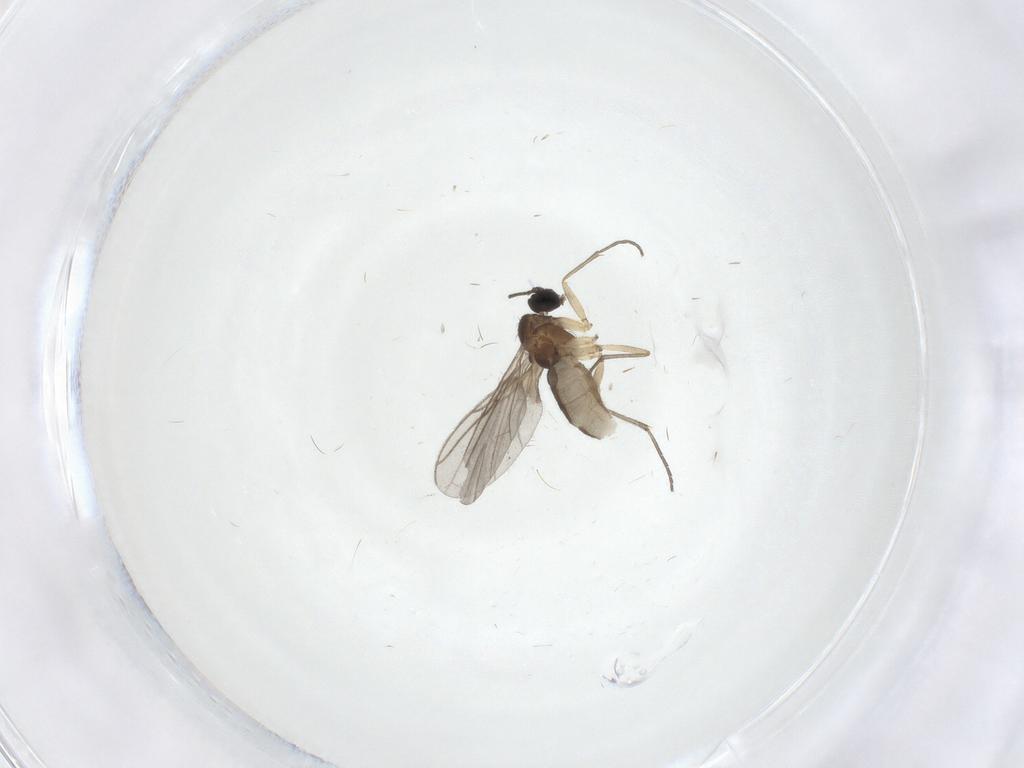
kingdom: Animalia
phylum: Arthropoda
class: Insecta
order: Diptera
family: Sciaridae
